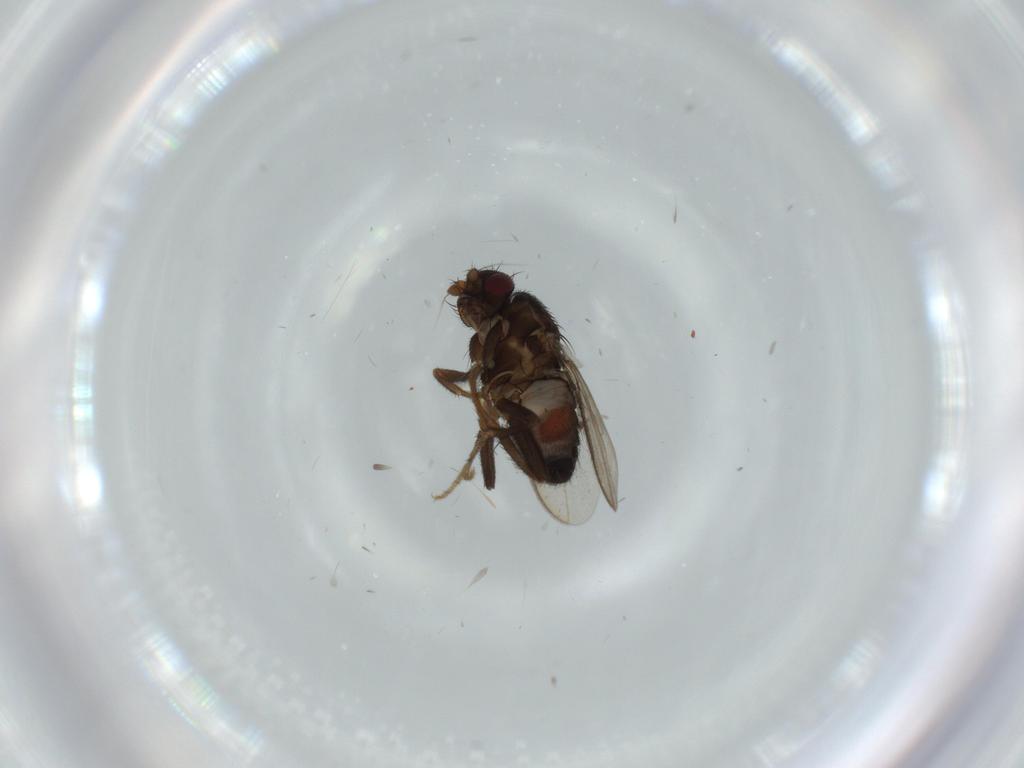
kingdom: Animalia
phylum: Arthropoda
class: Insecta
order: Diptera
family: Sphaeroceridae
